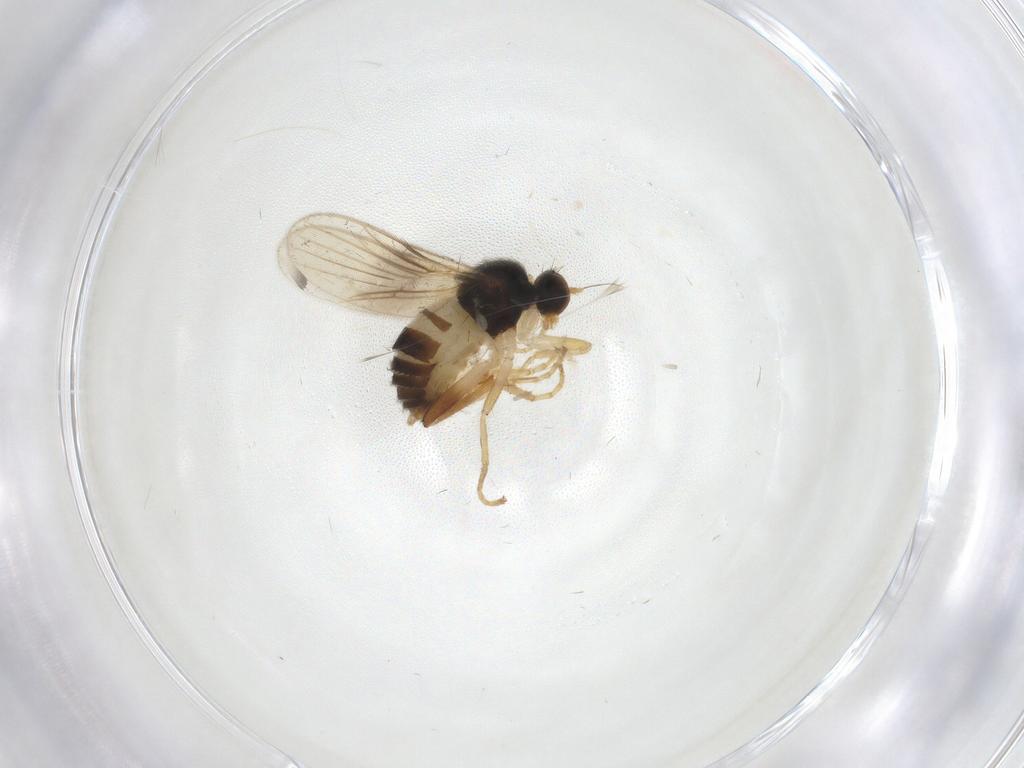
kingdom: Animalia
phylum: Arthropoda
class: Insecta
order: Diptera
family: Hybotidae
